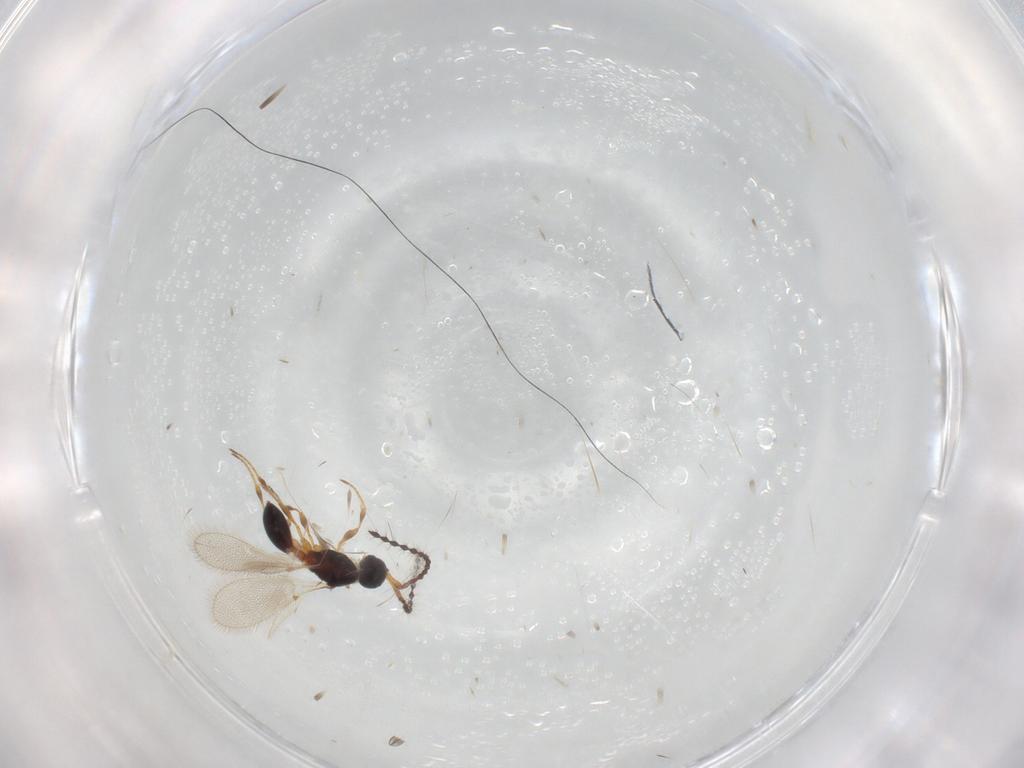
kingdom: Animalia
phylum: Arthropoda
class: Insecta
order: Hymenoptera
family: Diapriidae
